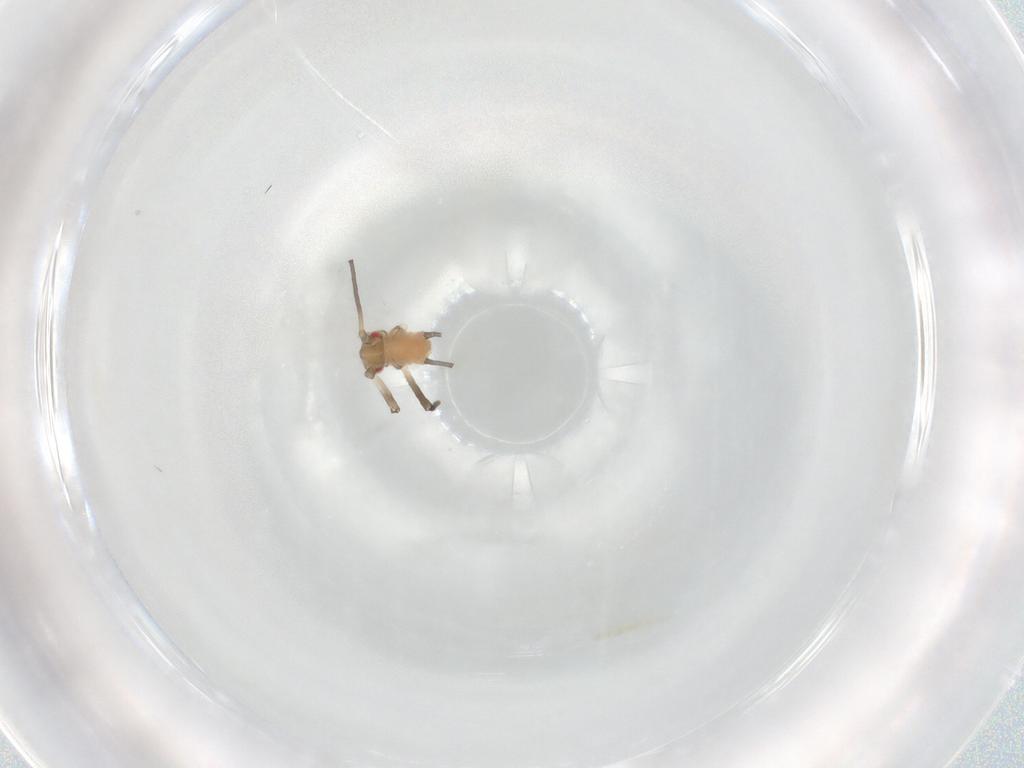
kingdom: Animalia
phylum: Arthropoda
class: Insecta
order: Hemiptera
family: Aphididae
